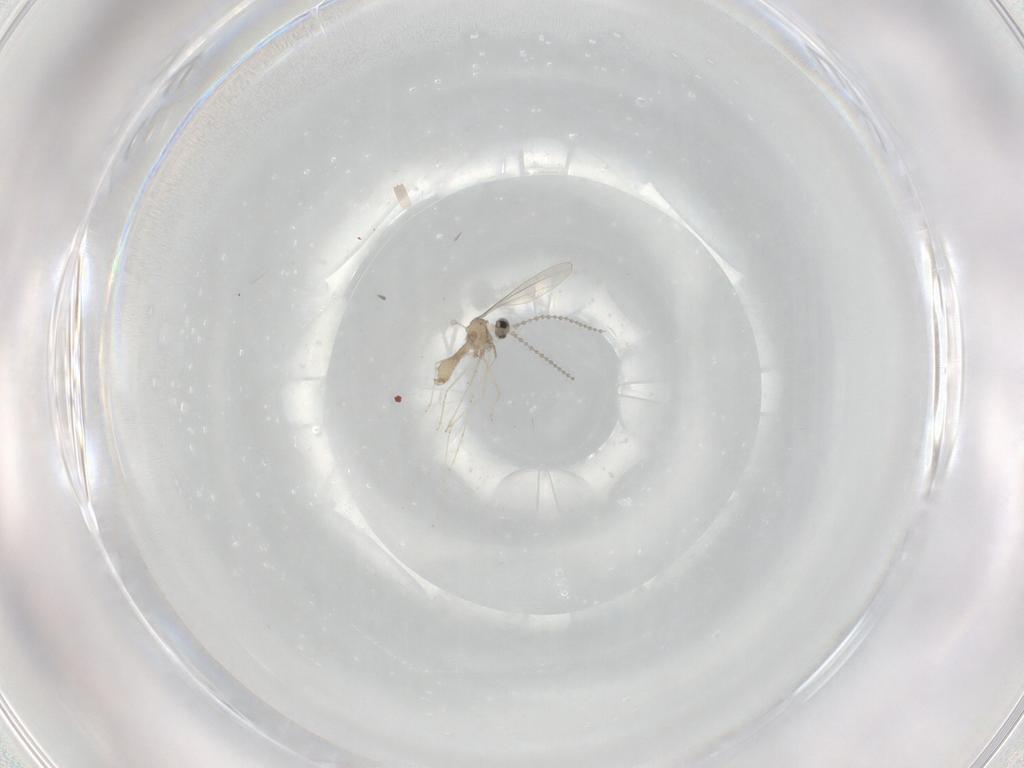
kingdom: Animalia
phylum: Arthropoda
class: Insecta
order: Diptera
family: Cecidomyiidae
